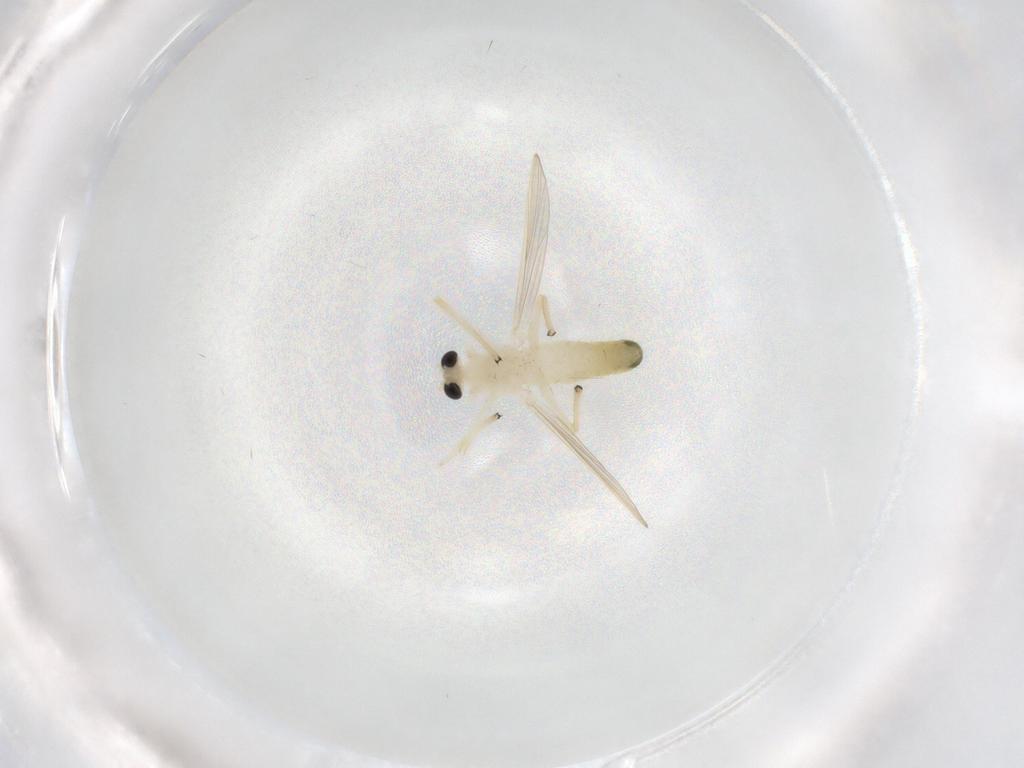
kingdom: Animalia
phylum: Arthropoda
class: Insecta
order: Diptera
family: Chironomidae
